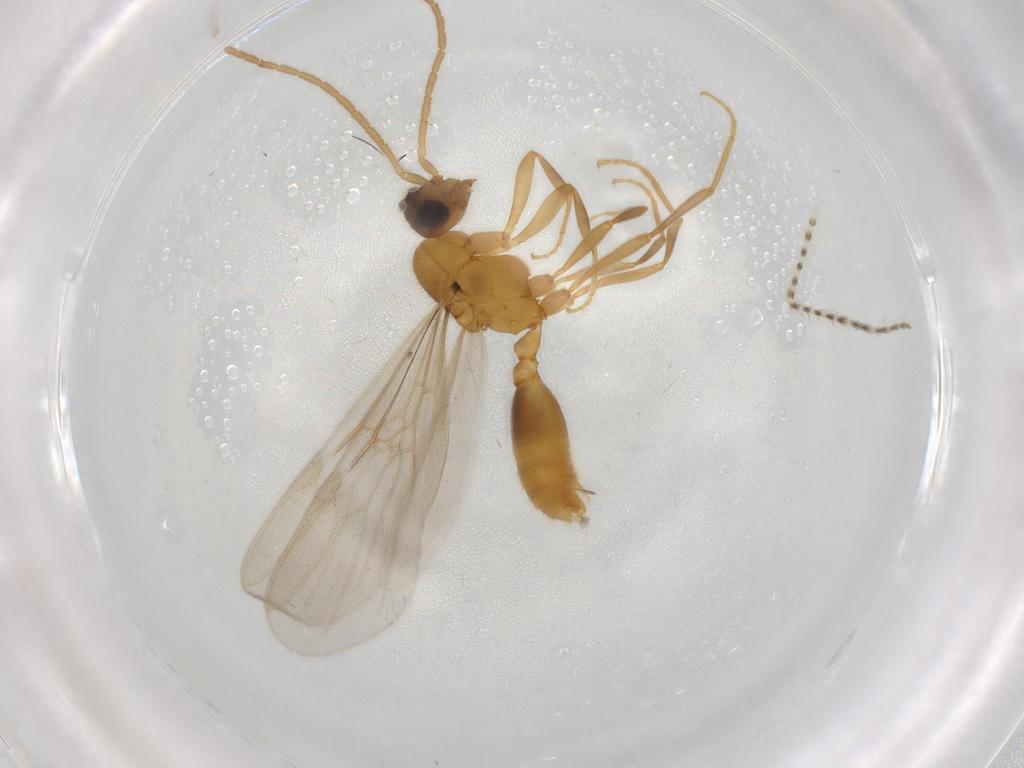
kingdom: Animalia
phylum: Arthropoda
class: Insecta
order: Hymenoptera
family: Formicidae
